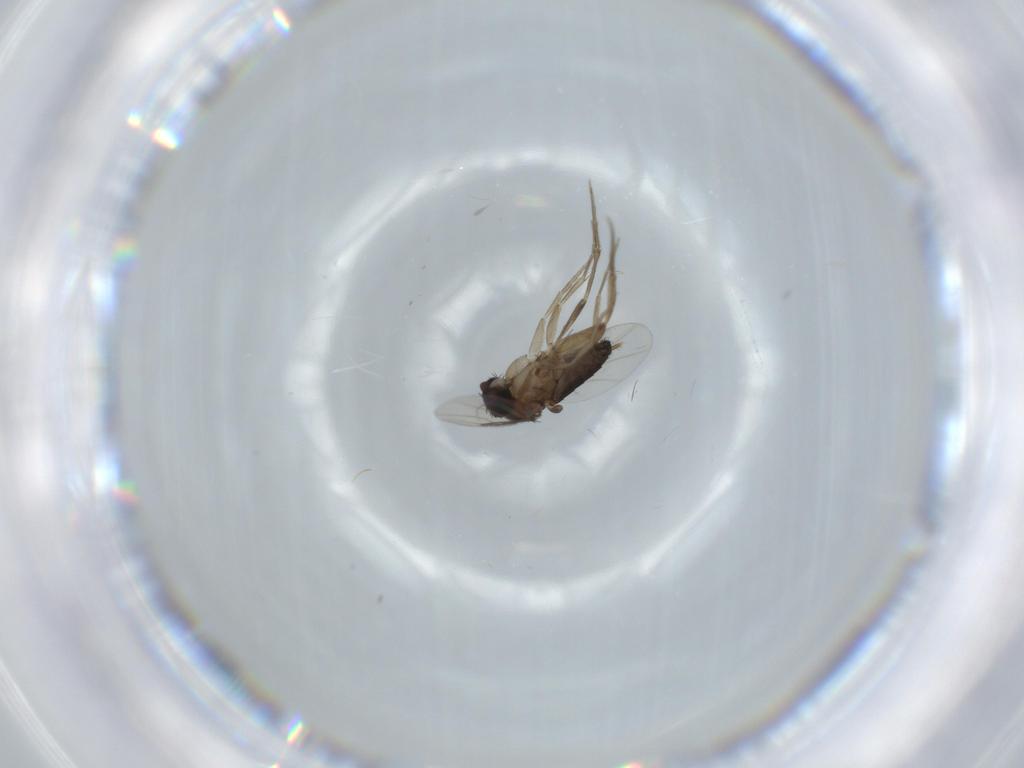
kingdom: Animalia
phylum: Arthropoda
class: Insecta
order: Diptera
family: Phoridae
